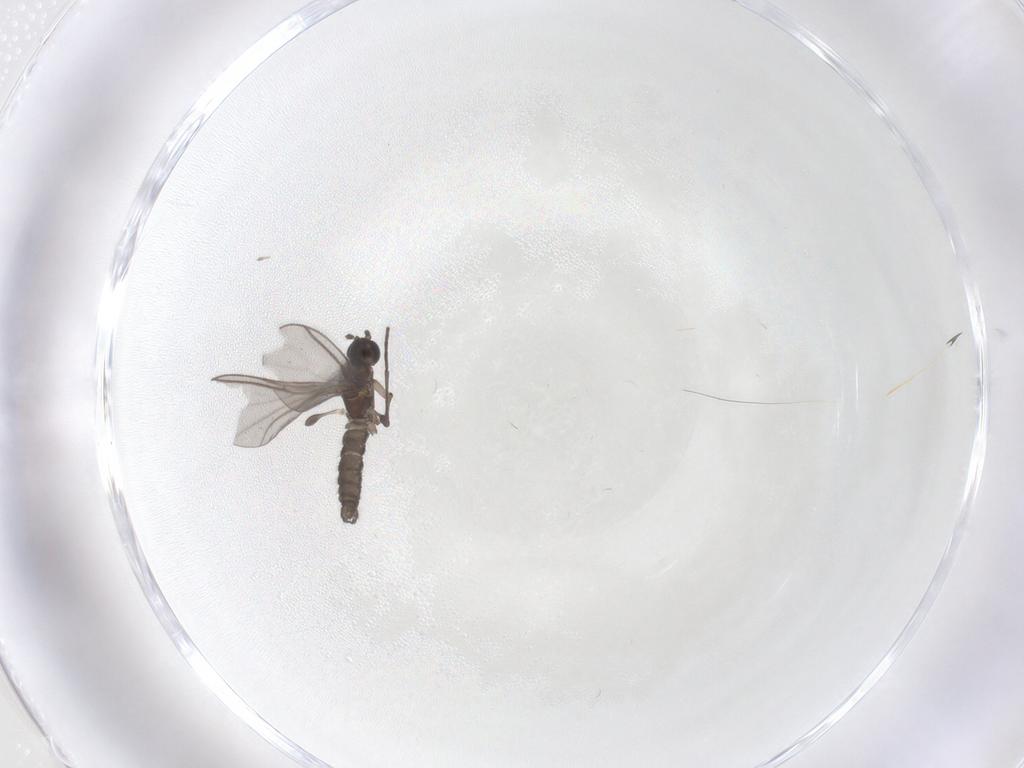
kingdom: Animalia
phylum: Arthropoda
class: Insecta
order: Diptera
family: Sciaridae
